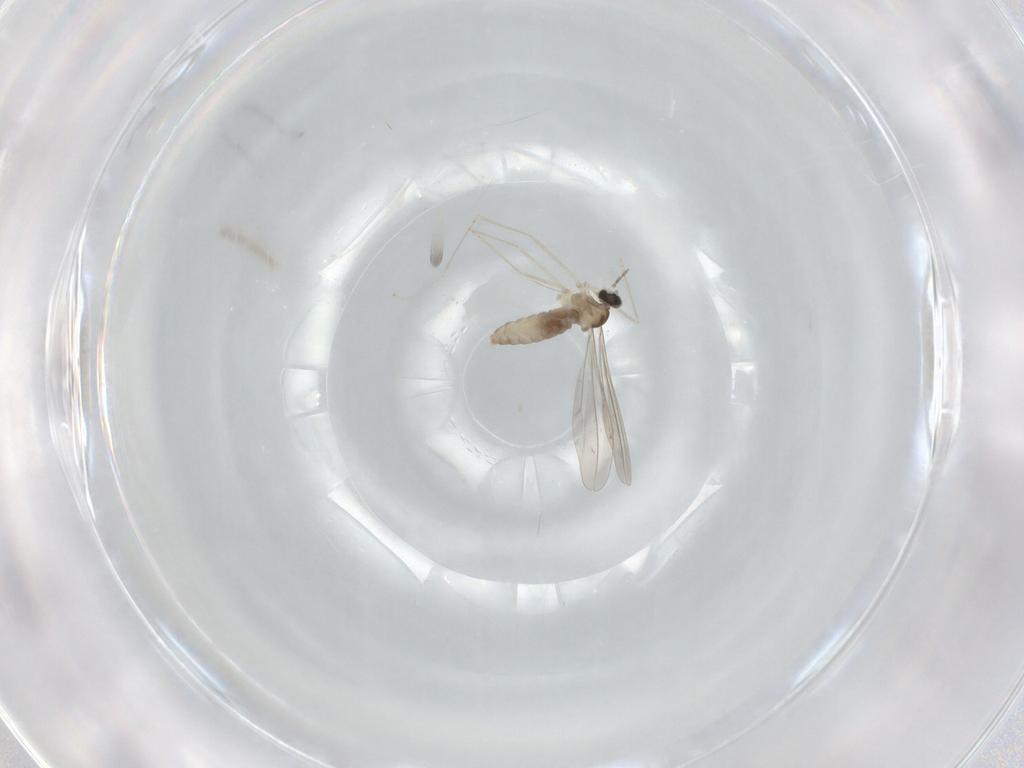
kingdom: Animalia
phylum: Arthropoda
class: Insecta
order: Diptera
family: Cecidomyiidae
